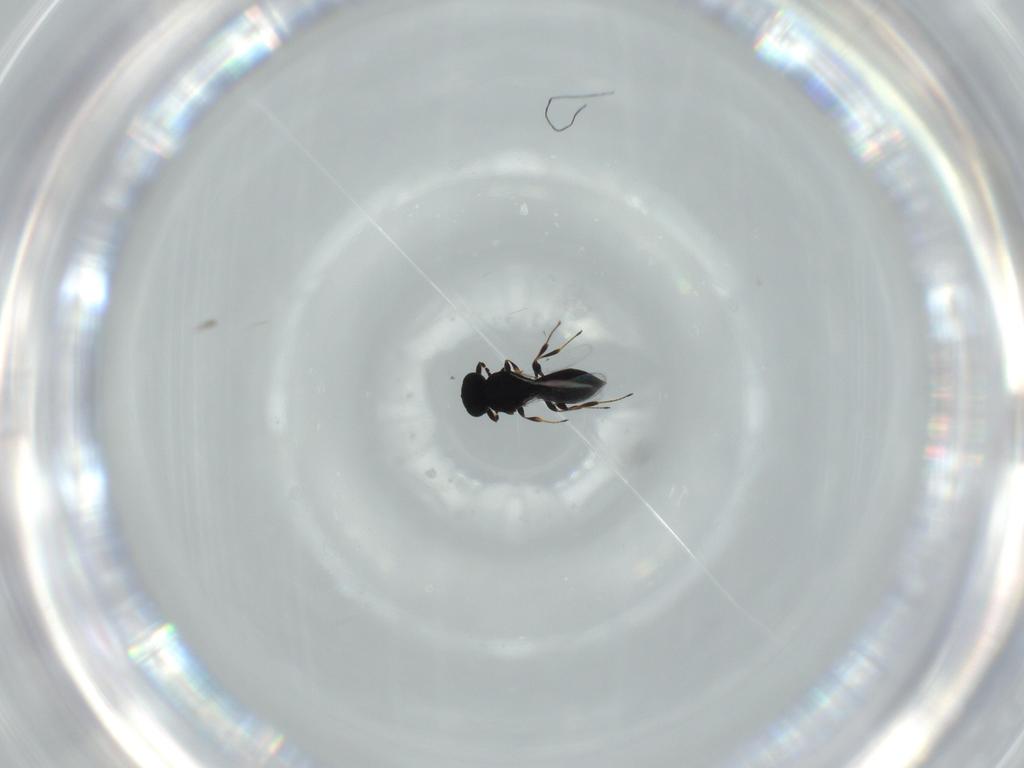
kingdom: Animalia
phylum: Arthropoda
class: Insecta
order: Hymenoptera
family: Platygastridae
